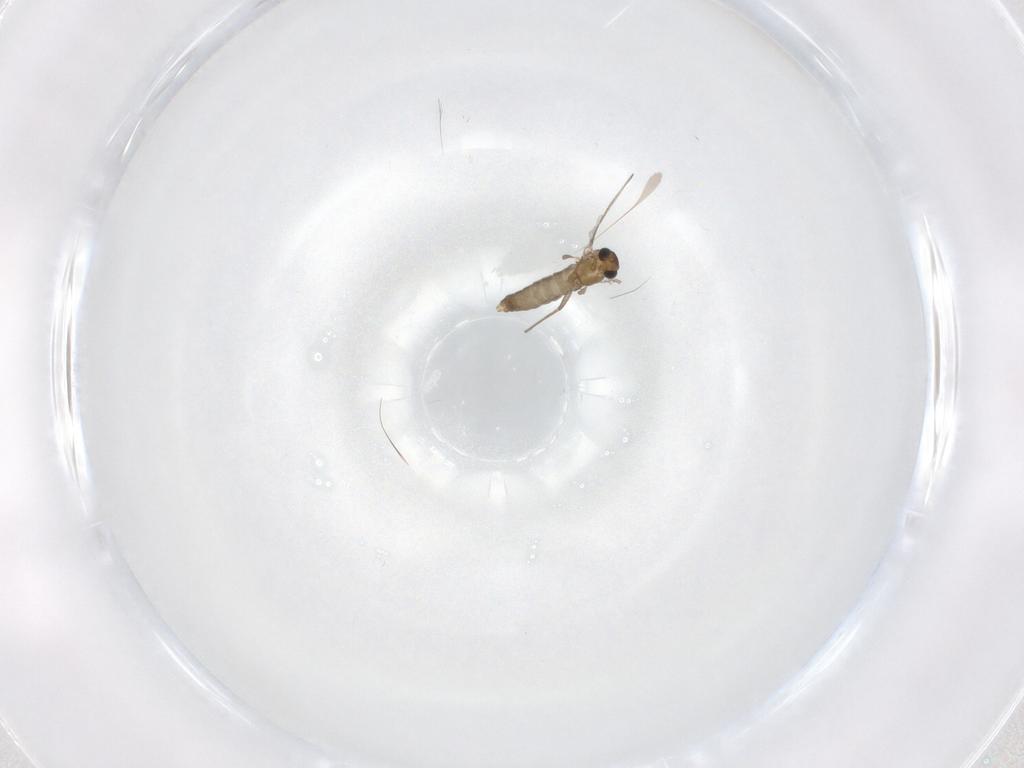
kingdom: Animalia
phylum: Arthropoda
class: Insecta
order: Diptera
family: Chironomidae
